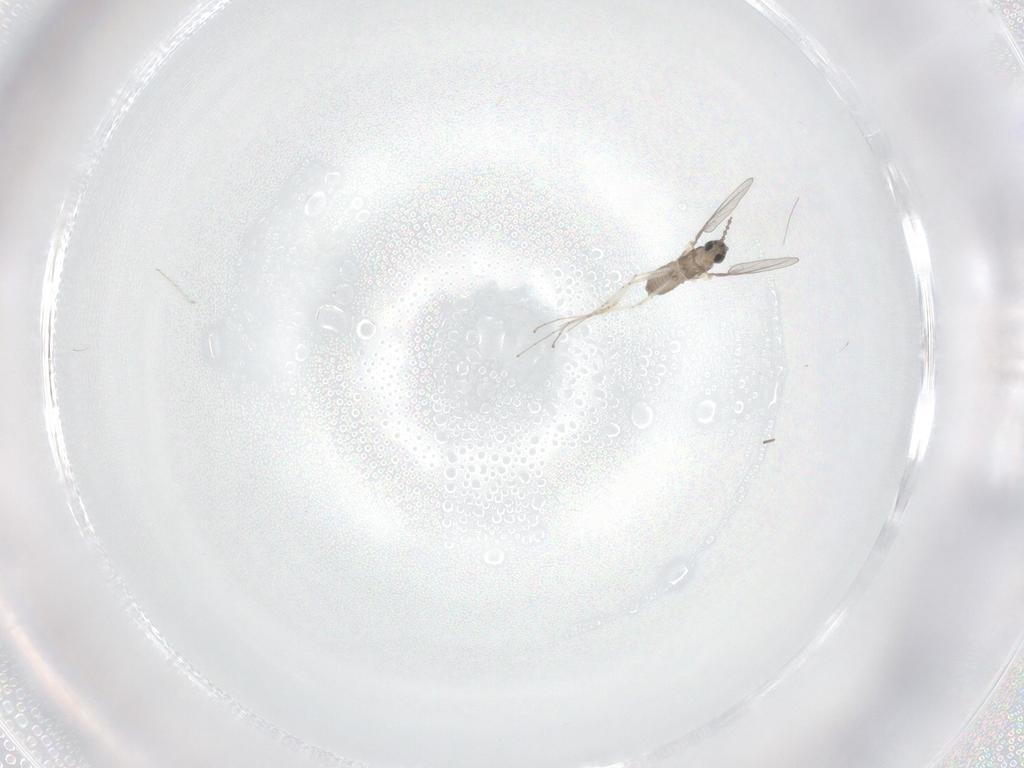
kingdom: Animalia
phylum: Arthropoda
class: Insecta
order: Diptera
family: Cecidomyiidae
